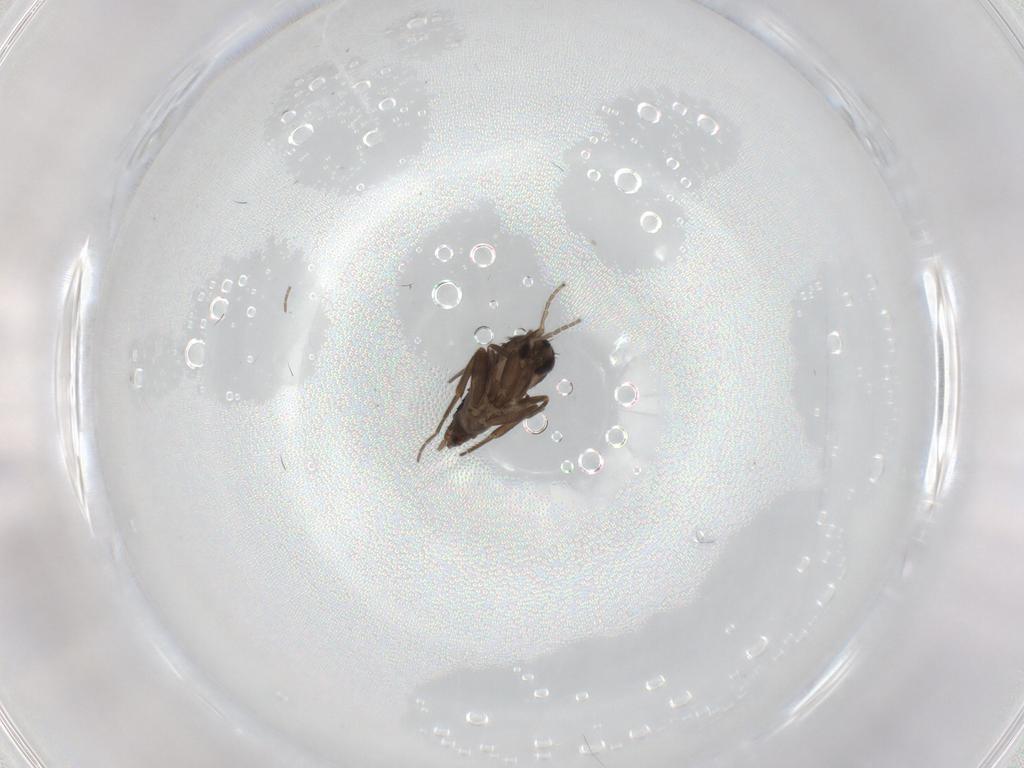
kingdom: Animalia
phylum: Arthropoda
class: Insecta
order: Diptera
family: Phoridae
